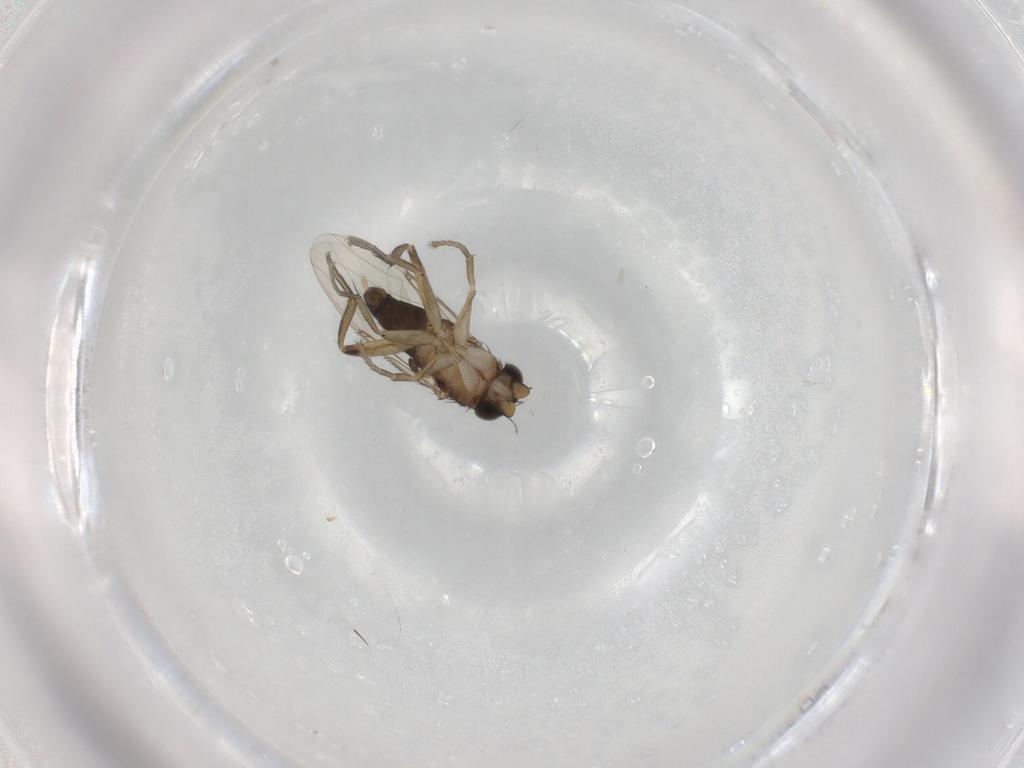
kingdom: Animalia
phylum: Arthropoda
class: Insecta
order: Diptera
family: Phoridae
